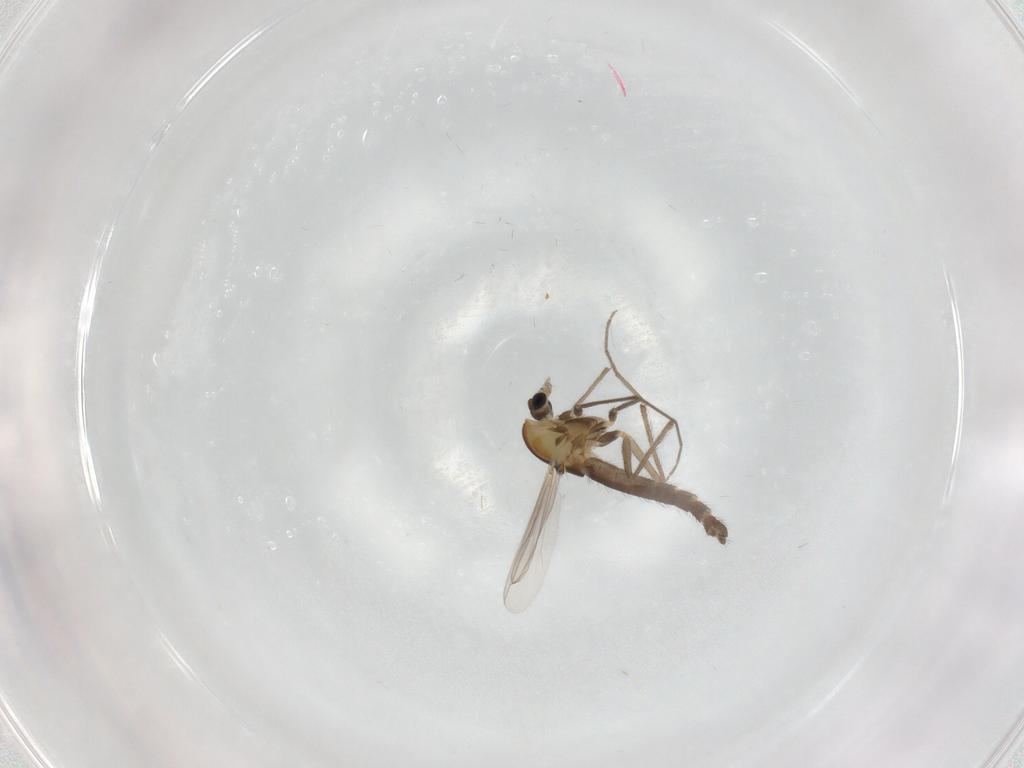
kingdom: Animalia
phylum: Arthropoda
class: Insecta
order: Diptera
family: Chironomidae
